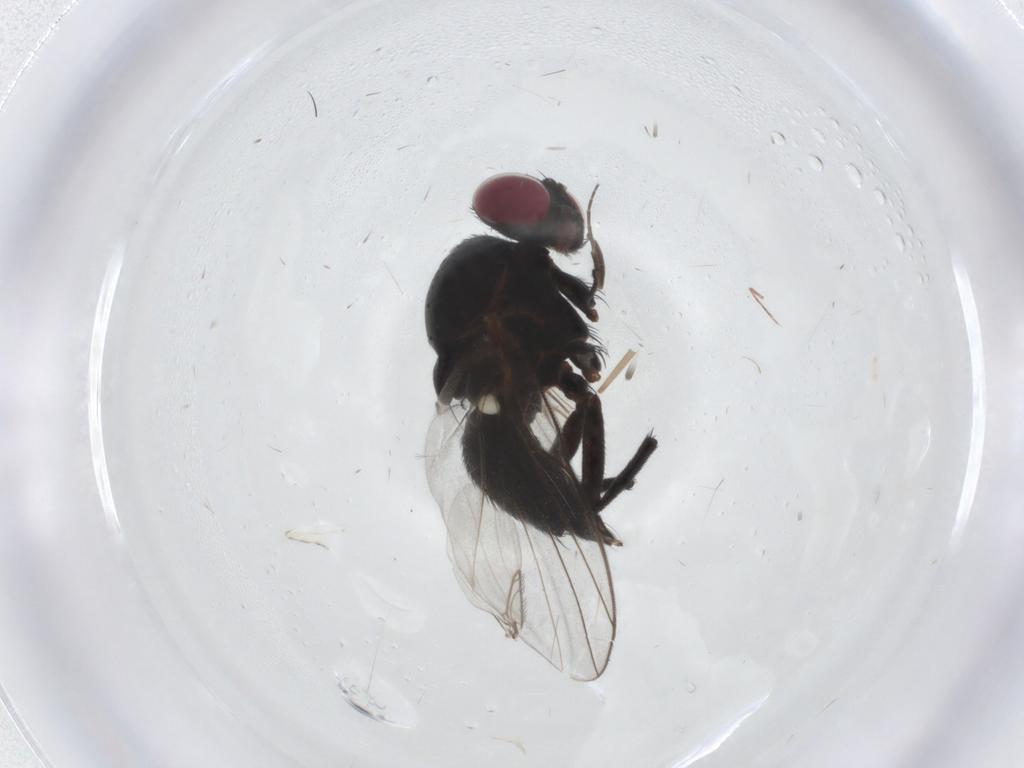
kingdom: Animalia
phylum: Arthropoda
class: Insecta
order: Diptera
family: Agromyzidae
